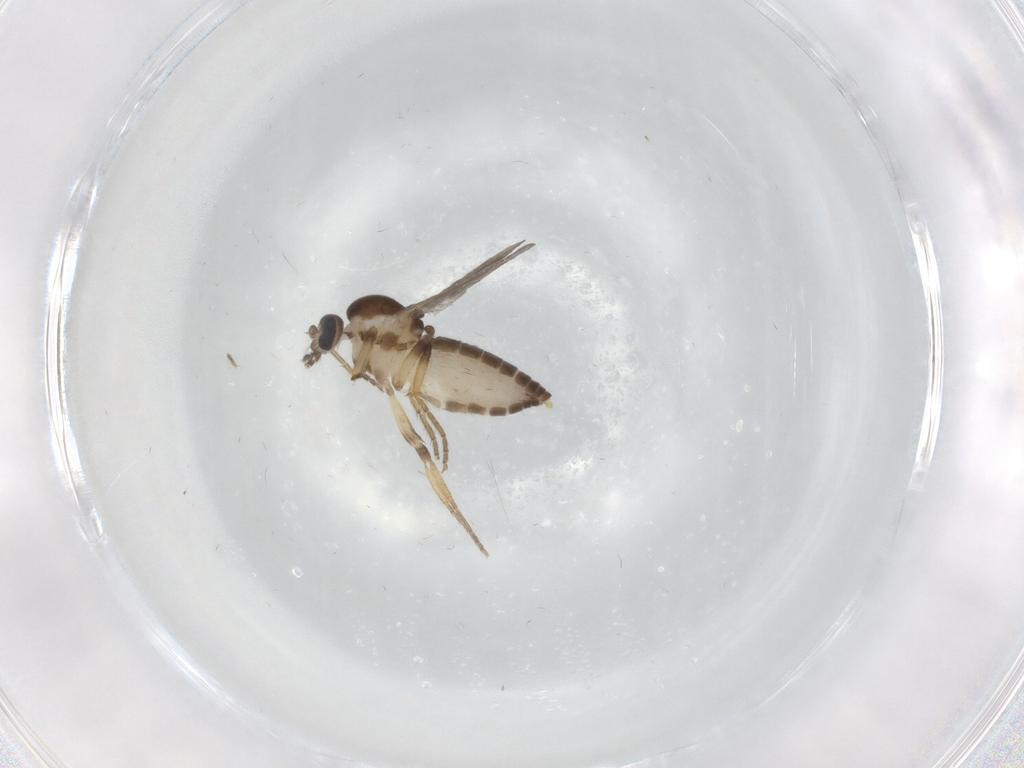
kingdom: Animalia
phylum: Arthropoda
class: Insecta
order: Diptera
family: Ceratopogonidae
